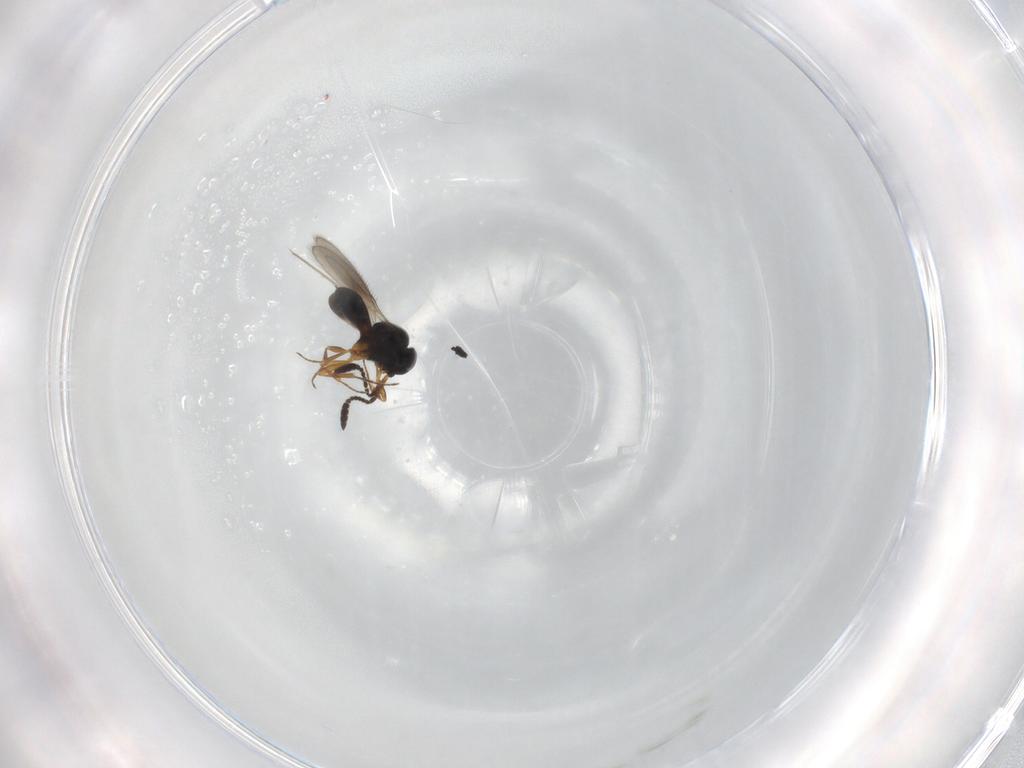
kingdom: Animalia
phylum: Arthropoda
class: Insecta
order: Hymenoptera
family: Scelionidae
